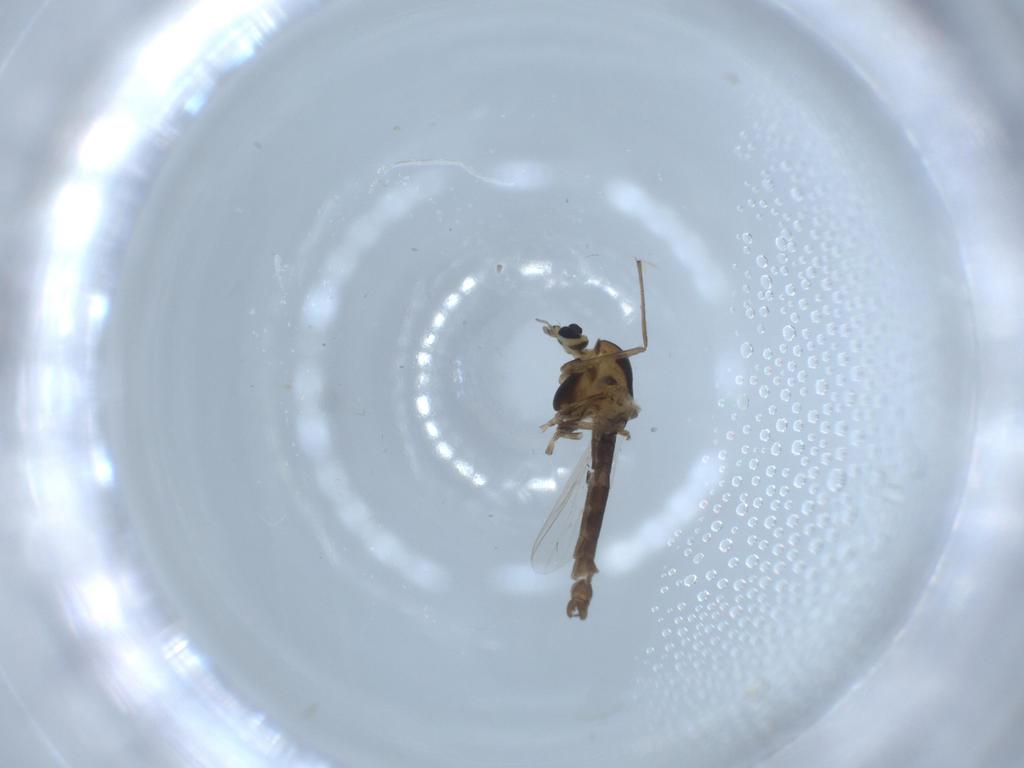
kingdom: Animalia
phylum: Arthropoda
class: Insecta
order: Diptera
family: Chironomidae
